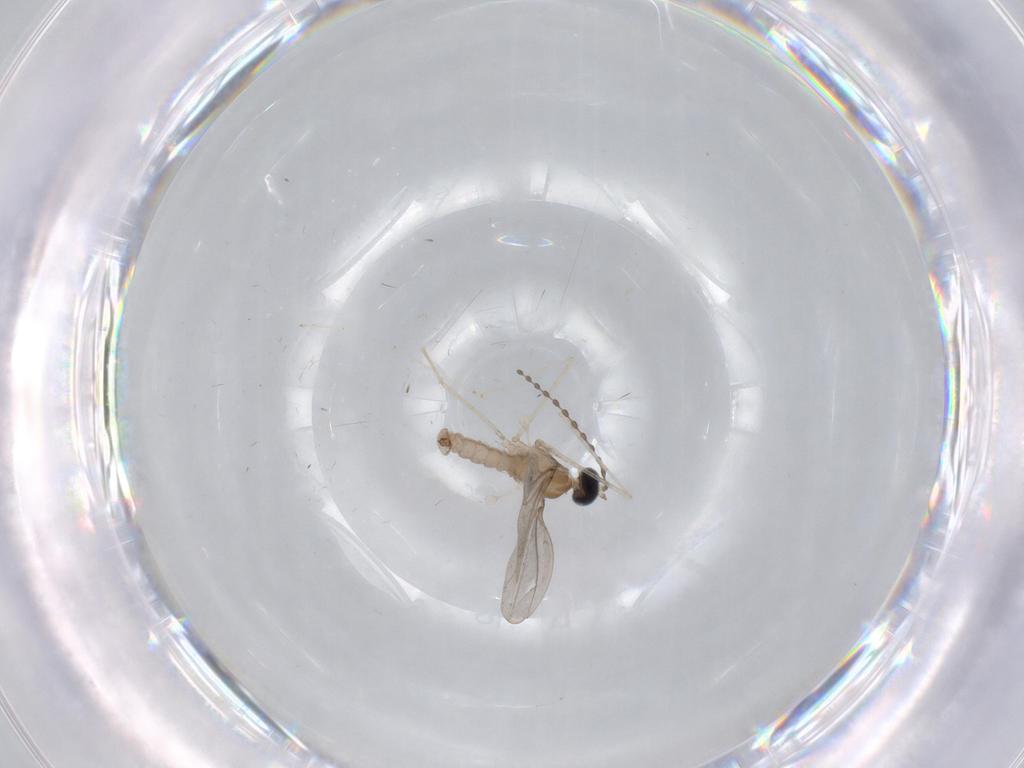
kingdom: Animalia
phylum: Arthropoda
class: Insecta
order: Diptera
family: Cecidomyiidae
